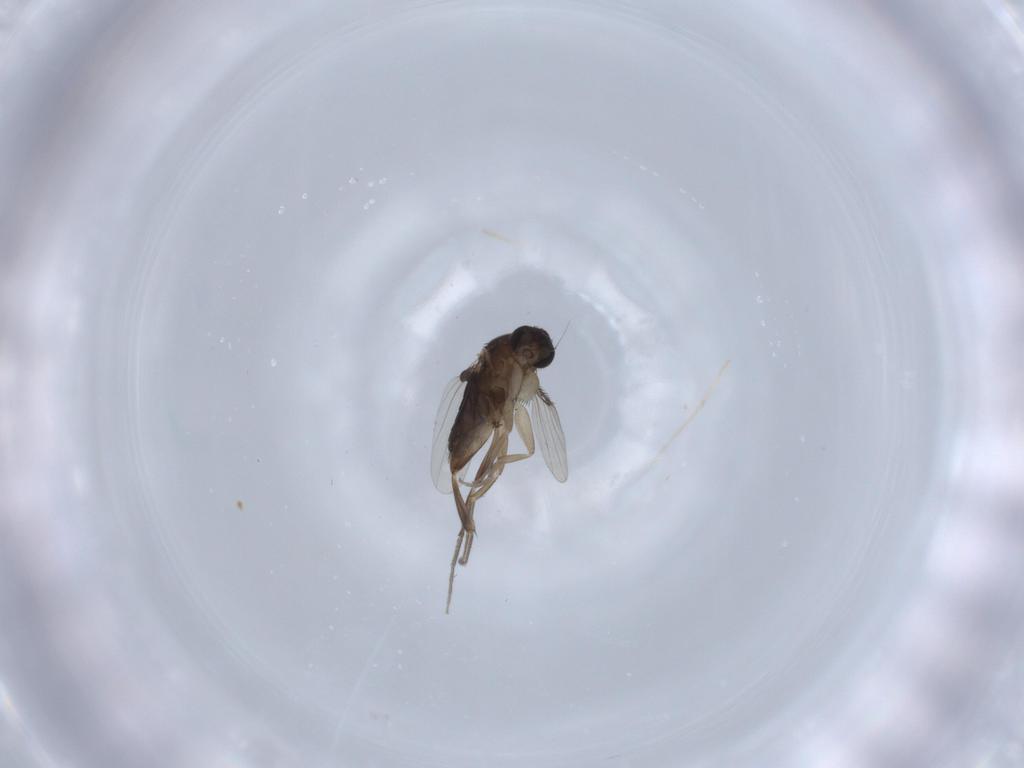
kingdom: Animalia
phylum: Arthropoda
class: Insecta
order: Diptera
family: Phoridae
